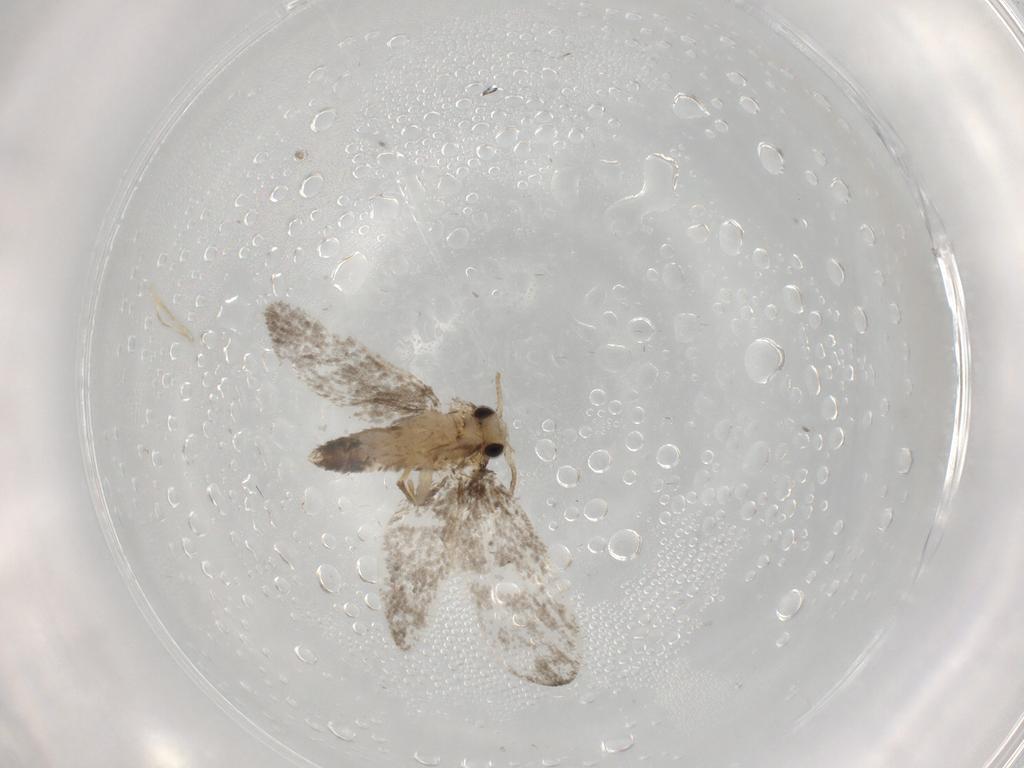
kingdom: Animalia
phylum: Arthropoda
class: Insecta
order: Lepidoptera
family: Psychidae
